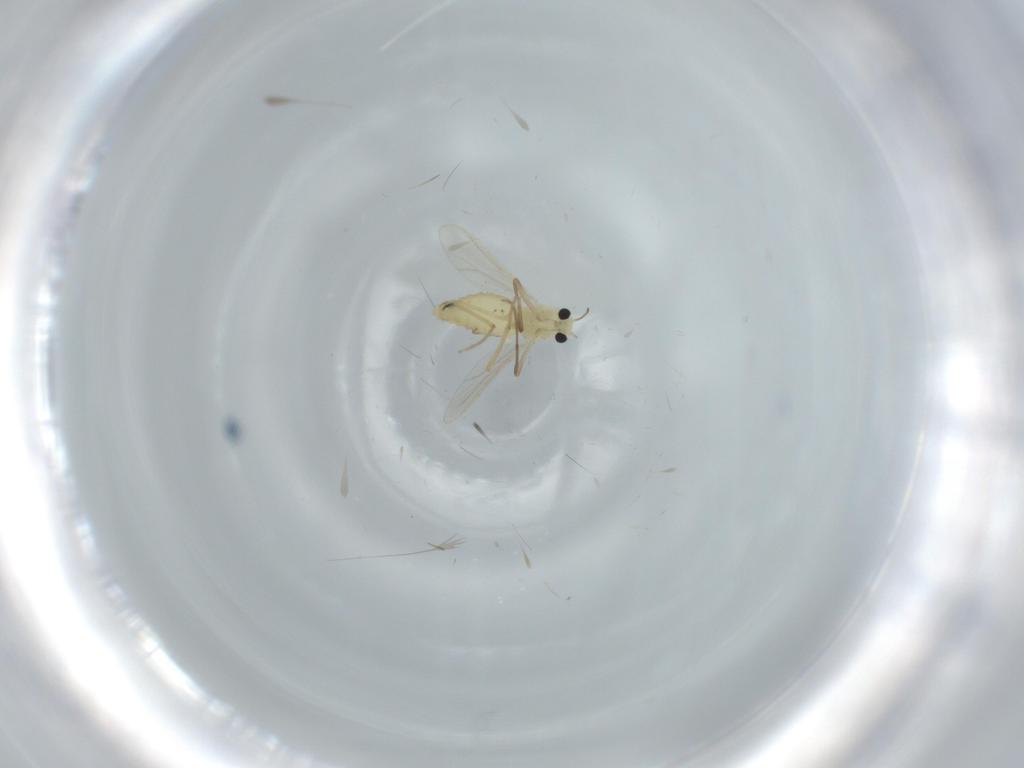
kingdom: Animalia
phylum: Arthropoda
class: Insecta
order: Diptera
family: Chironomidae
